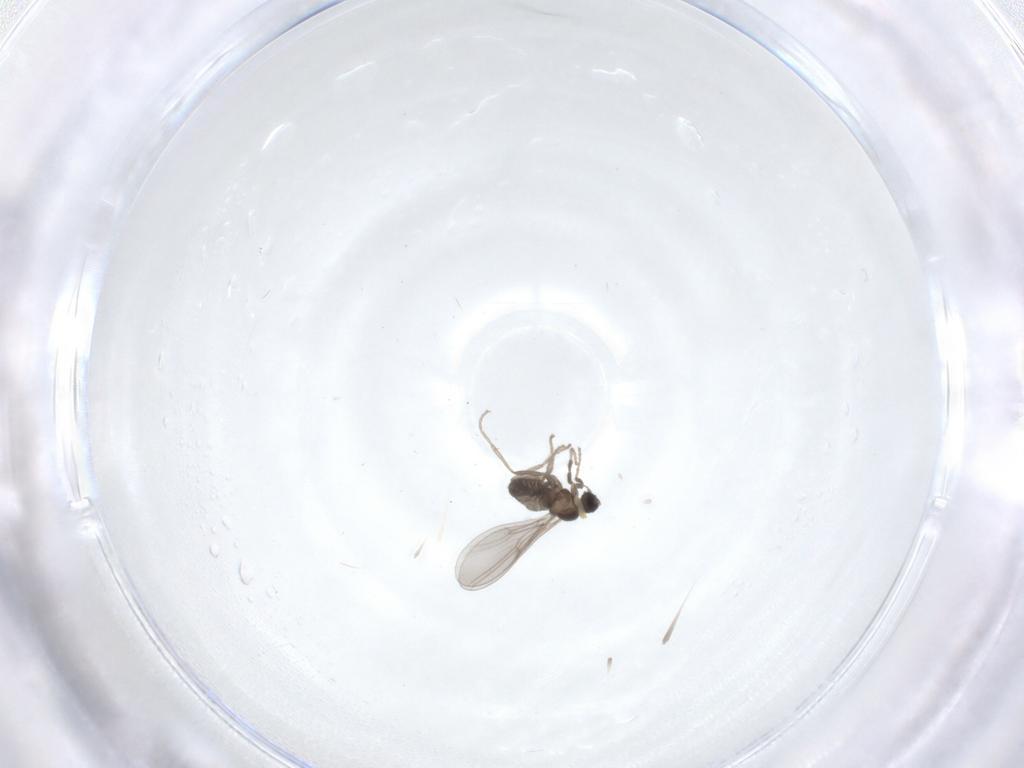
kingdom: Animalia
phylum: Arthropoda
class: Insecta
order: Diptera
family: Cecidomyiidae
